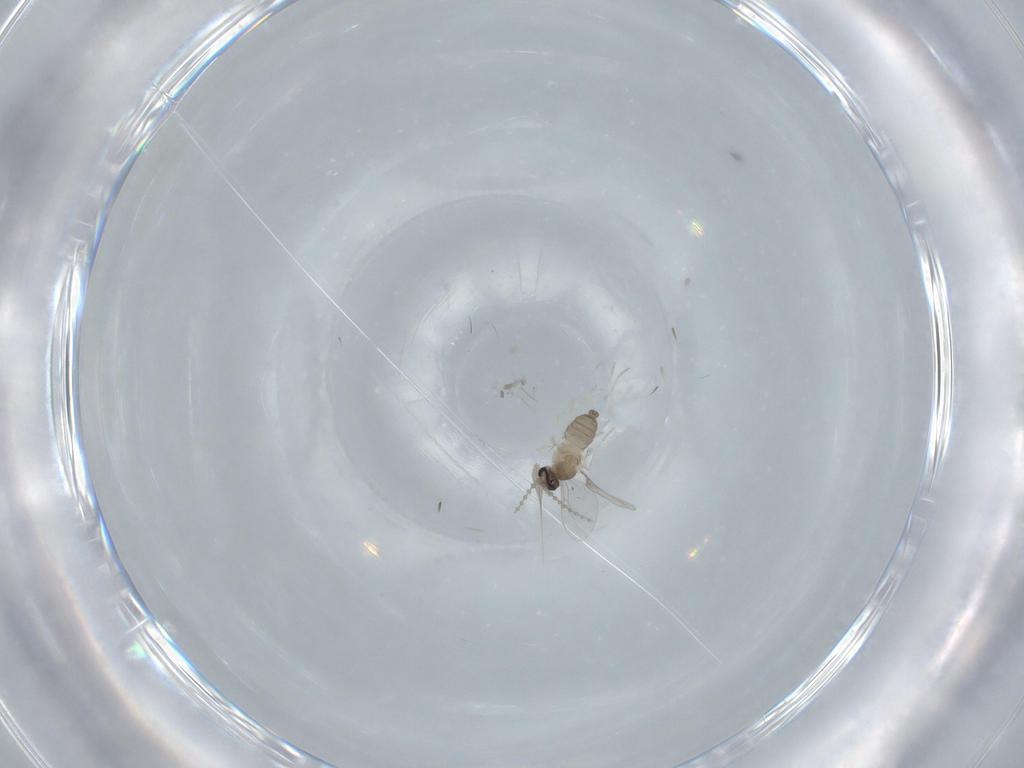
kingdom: Animalia
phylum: Arthropoda
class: Insecta
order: Diptera
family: Cecidomyiidae
